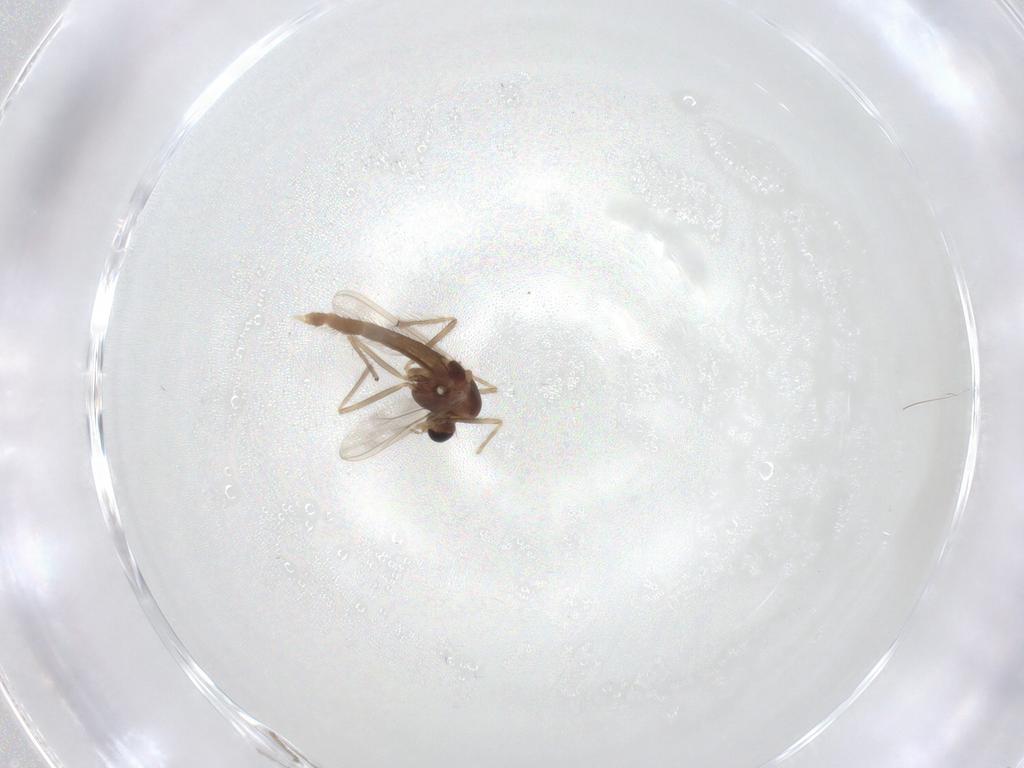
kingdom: Animalia
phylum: Arthropoda
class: Insecta
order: Diptera
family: Chironomidae
